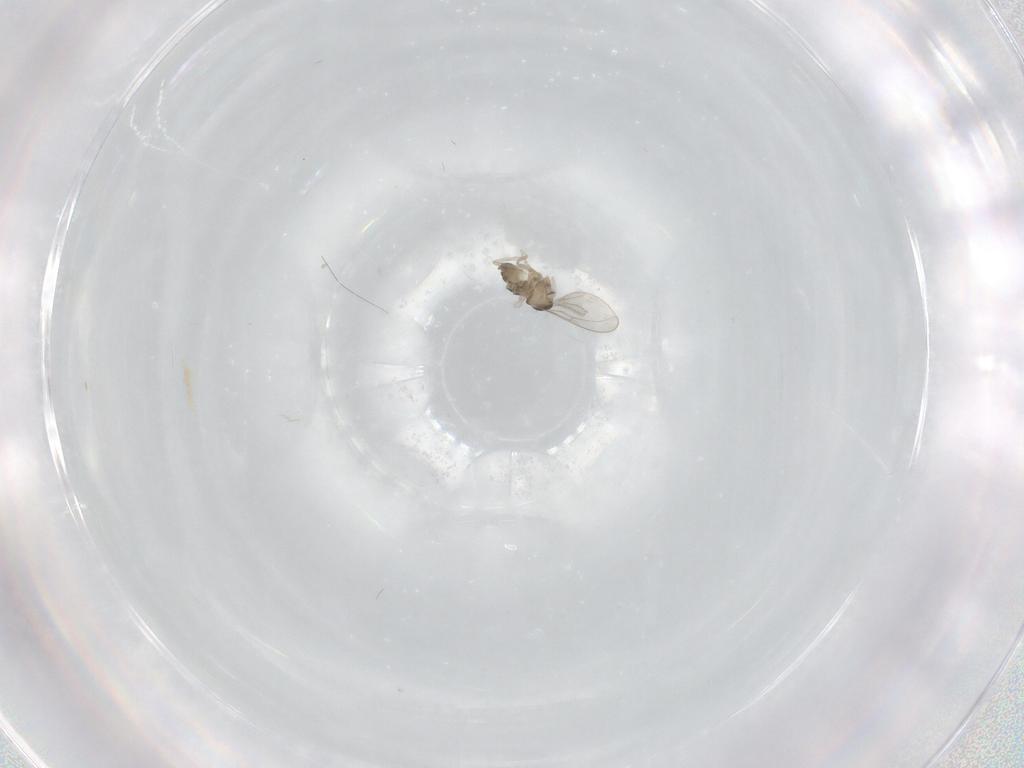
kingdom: Animalia
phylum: Arthropoda
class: Insecta
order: Diptera
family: Cecidomyiidae
